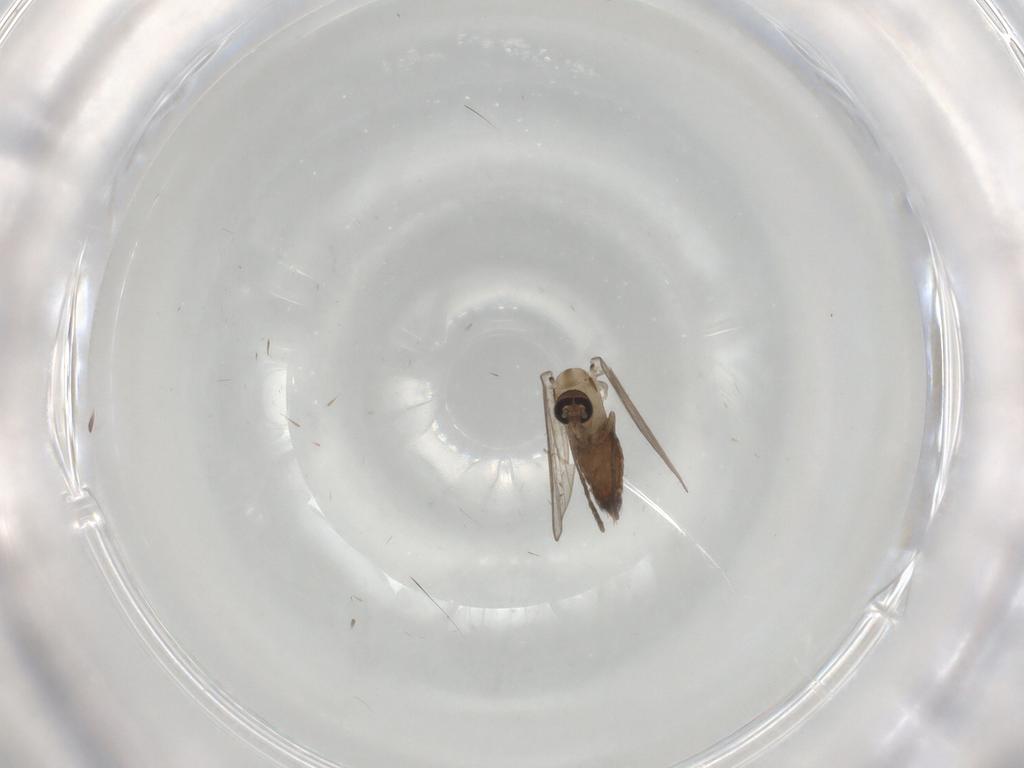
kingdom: Animalia
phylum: Arthropoda
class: Insecta
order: Diptera
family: Psychodidae
